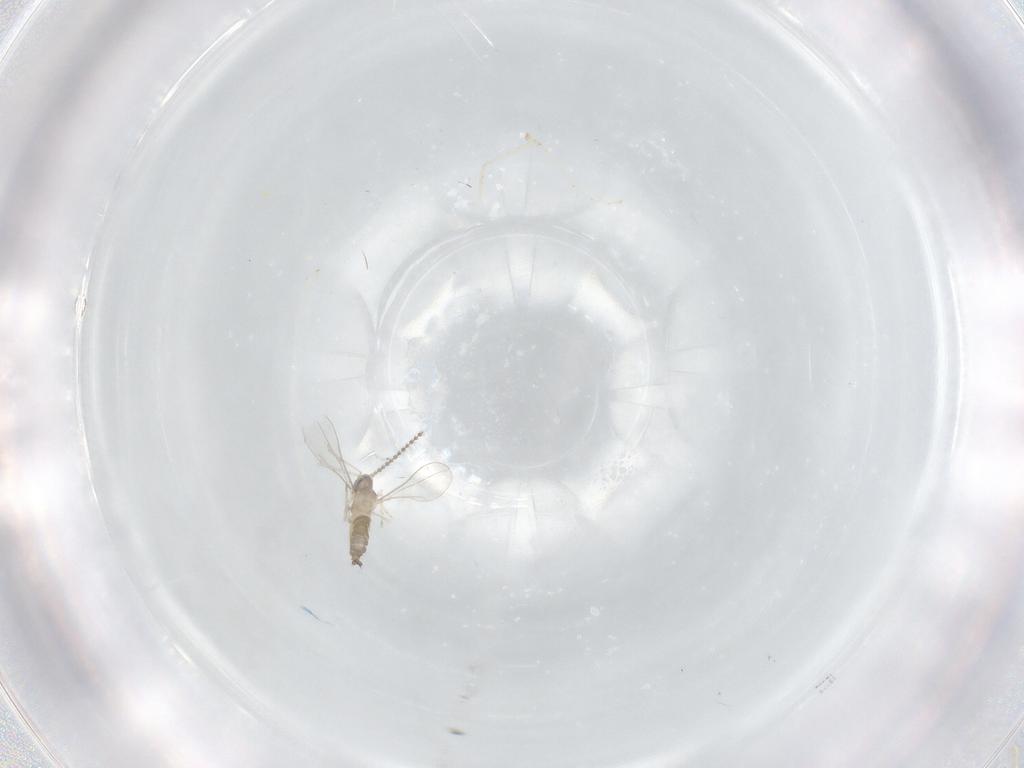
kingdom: Animalia
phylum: Arthropoda
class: Insecta
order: Diptera
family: Cecidomyiidae
